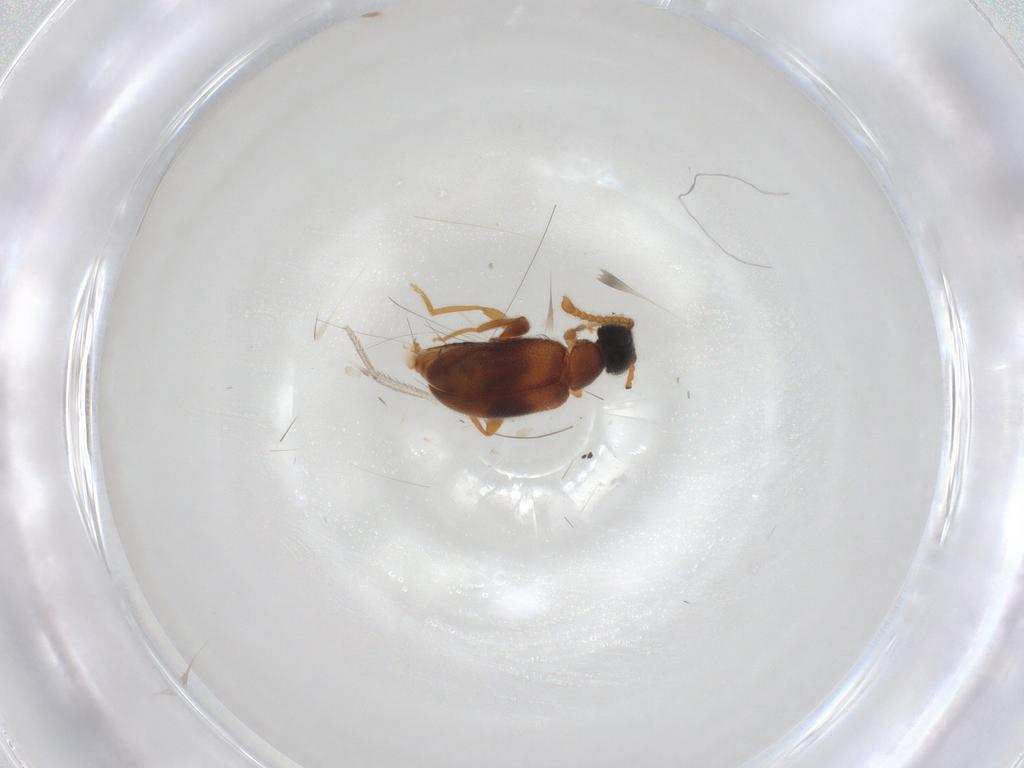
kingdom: Animalia
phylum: Arthropoda
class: Insecta
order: Coleoptera
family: Aderidae
